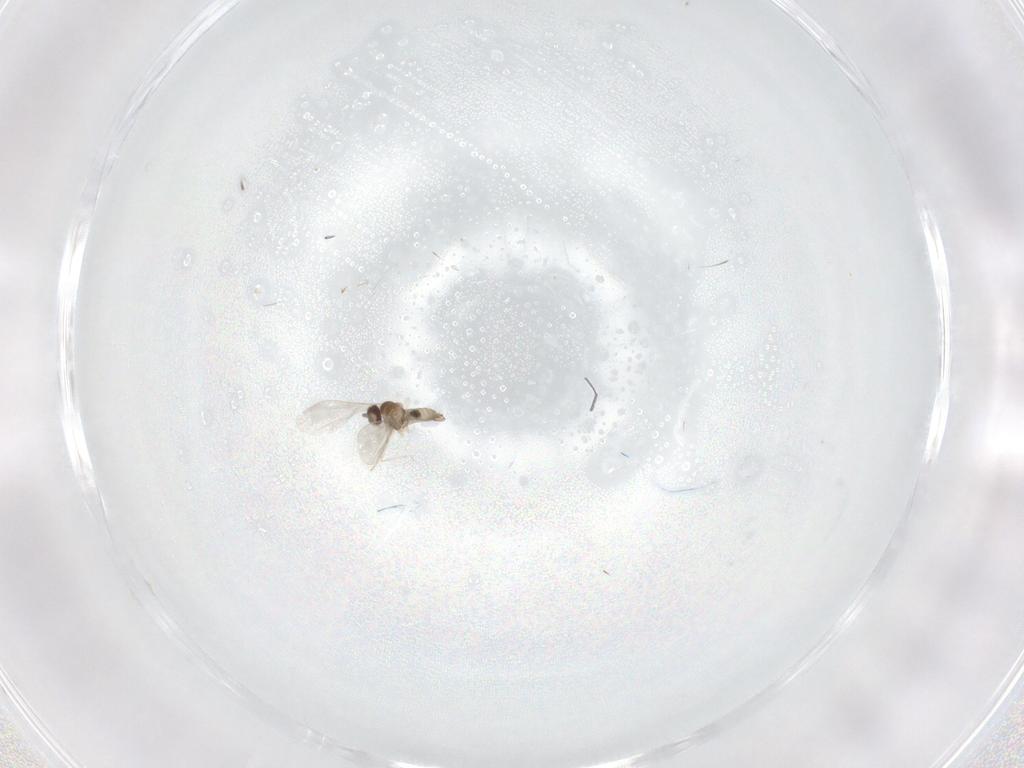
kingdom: Animalia
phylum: Arthropoda
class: Insecta
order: Diptera
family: Cecidomyiidae
